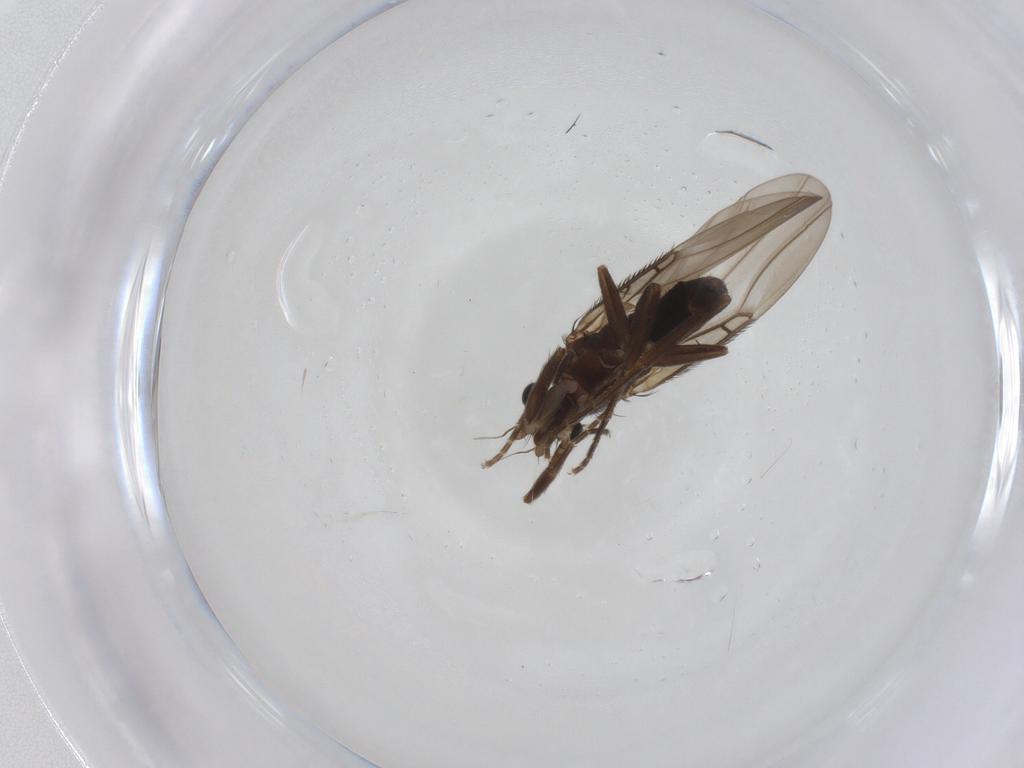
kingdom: Animalia
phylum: Arthropoda
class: Insecta
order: Diptera
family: Phoridae
